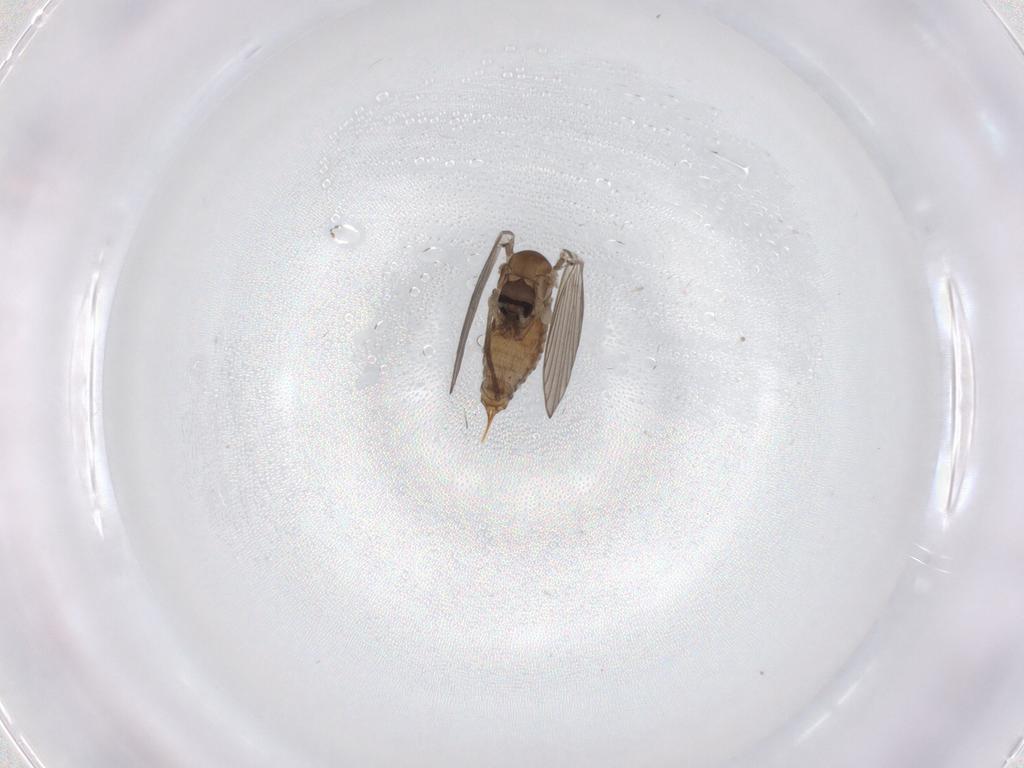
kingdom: Animalia
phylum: Arthropoda
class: Insecta
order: Diptera
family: Psychodidae
